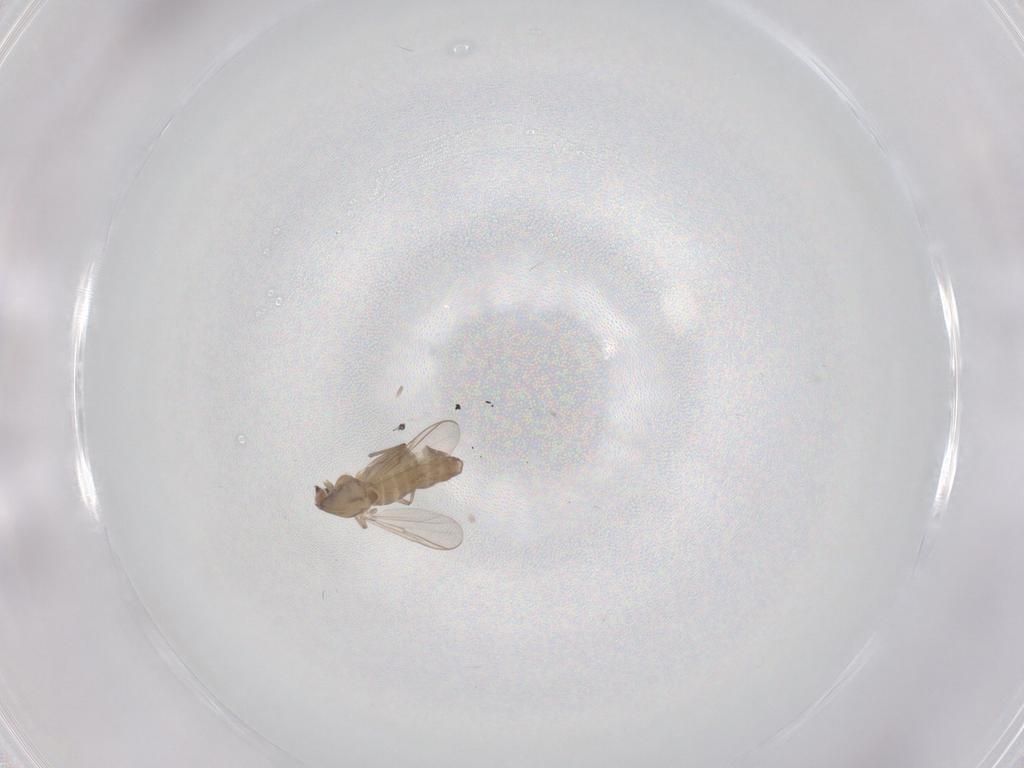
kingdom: Animalia
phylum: Arthropoda
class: Insecta
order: Diptera
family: Chironomidae
